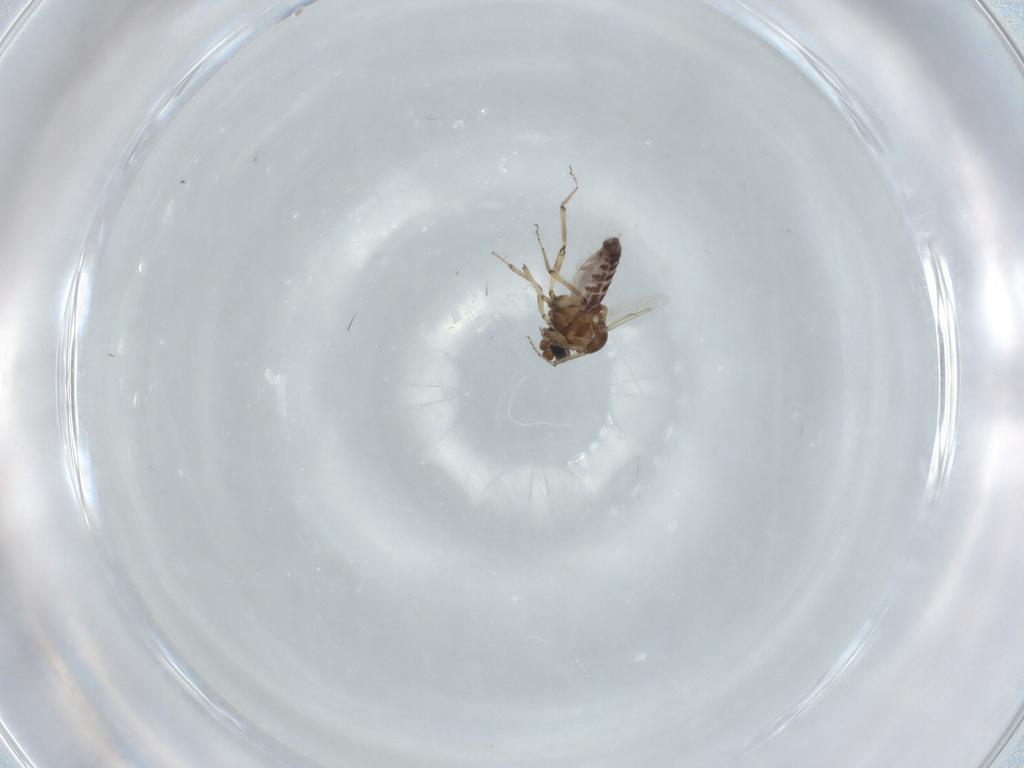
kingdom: Animalia
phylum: Arthropoda
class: Insecta
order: Diptera
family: Ceratopogonidae
